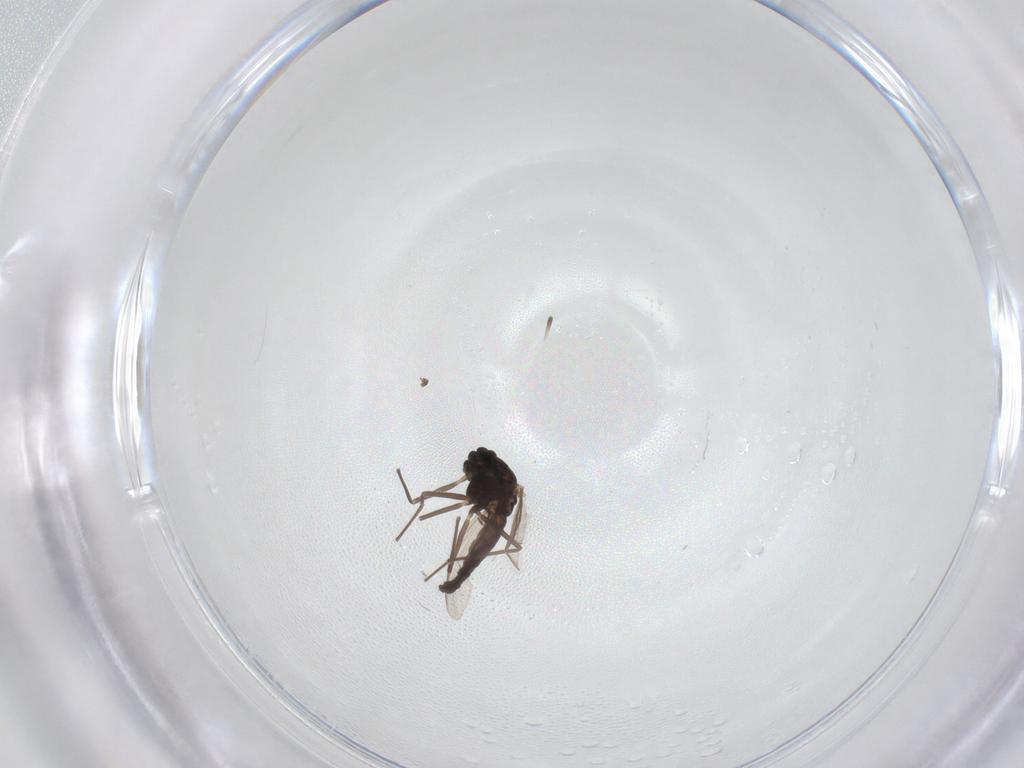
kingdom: Animalia
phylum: Arthropoda
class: Insecta
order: Diptera
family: Chironomidae
